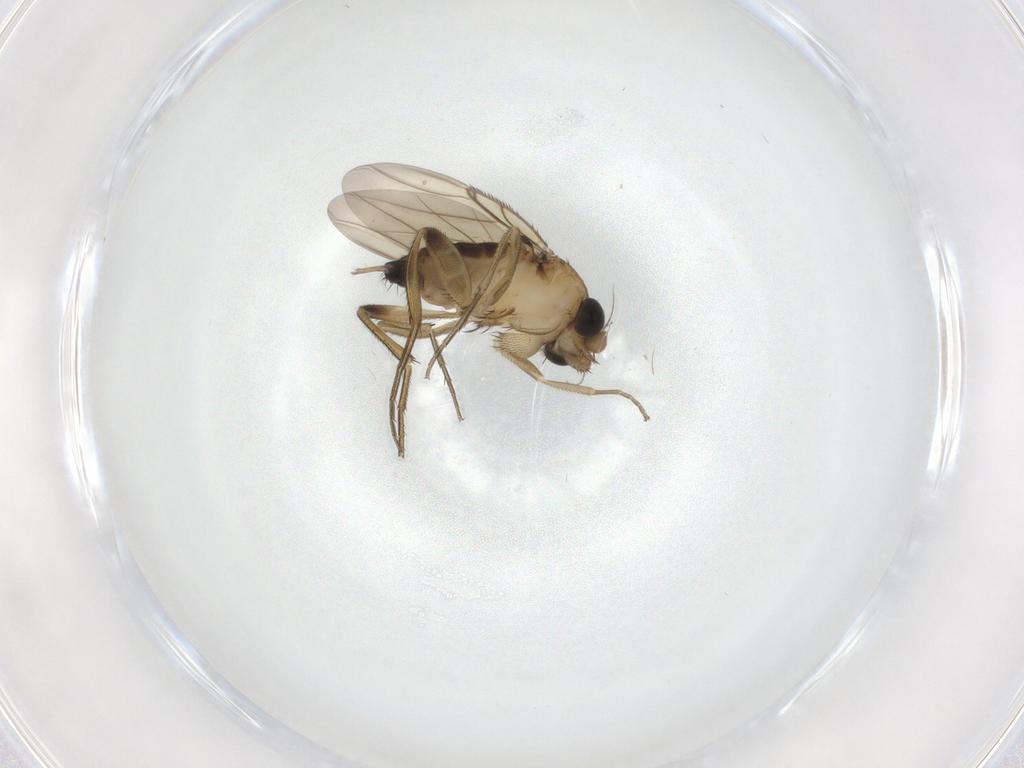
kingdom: Animalia
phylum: Arthropoda
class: Insecta
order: Diptera
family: Phoridae
